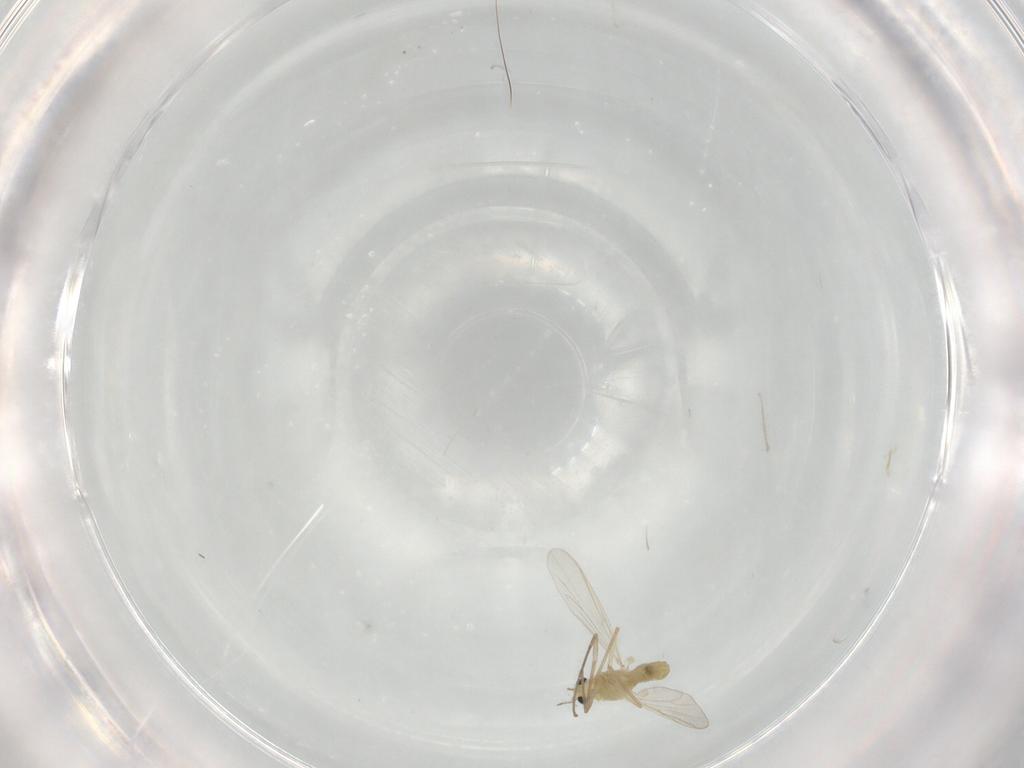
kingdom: Animalia
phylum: Arthropoda
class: Insecta
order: Diptera
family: Chironomidae
